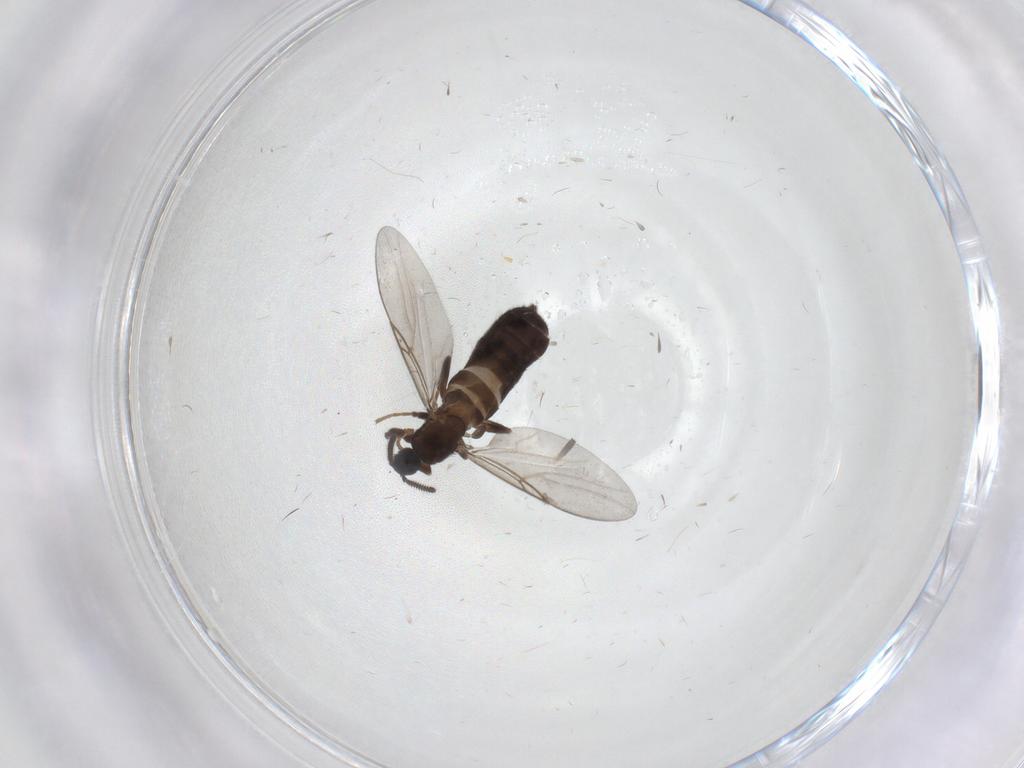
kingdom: Animalia
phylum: Arthropoda
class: Insecta
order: Diptera
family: Scatopsidae
